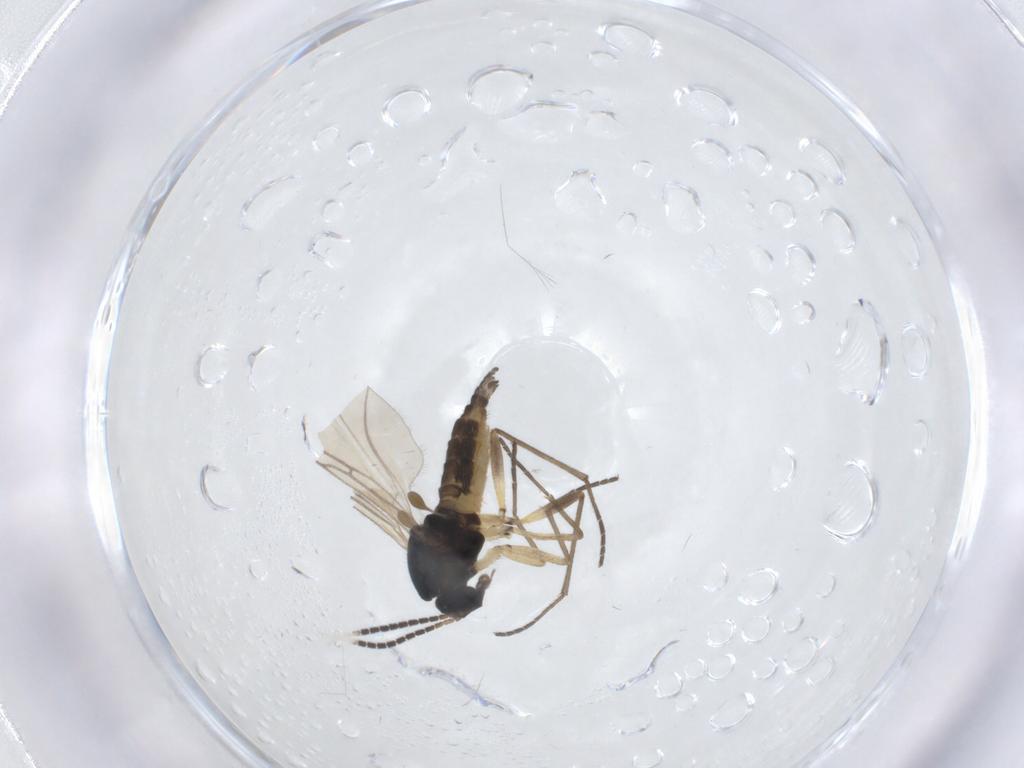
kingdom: Animalia
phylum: Arthropoda
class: Insecta
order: Diptera
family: Sciaridae
